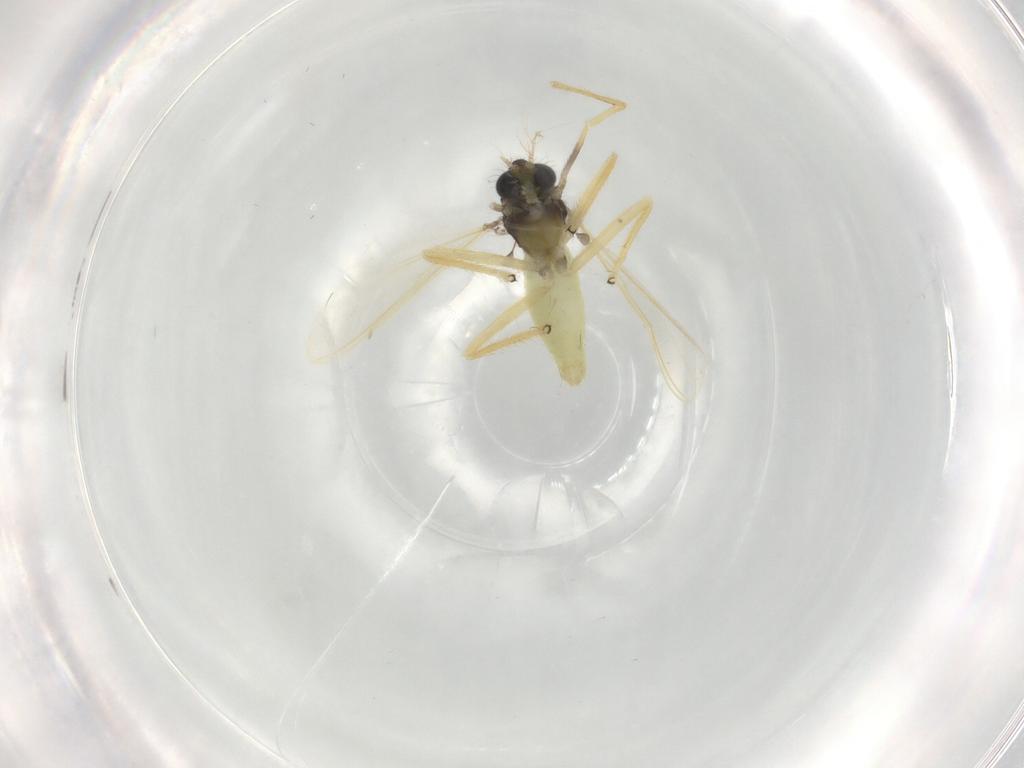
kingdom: Animalia
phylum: Arthropoda
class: Insecta
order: Diptera
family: Chironomidae
